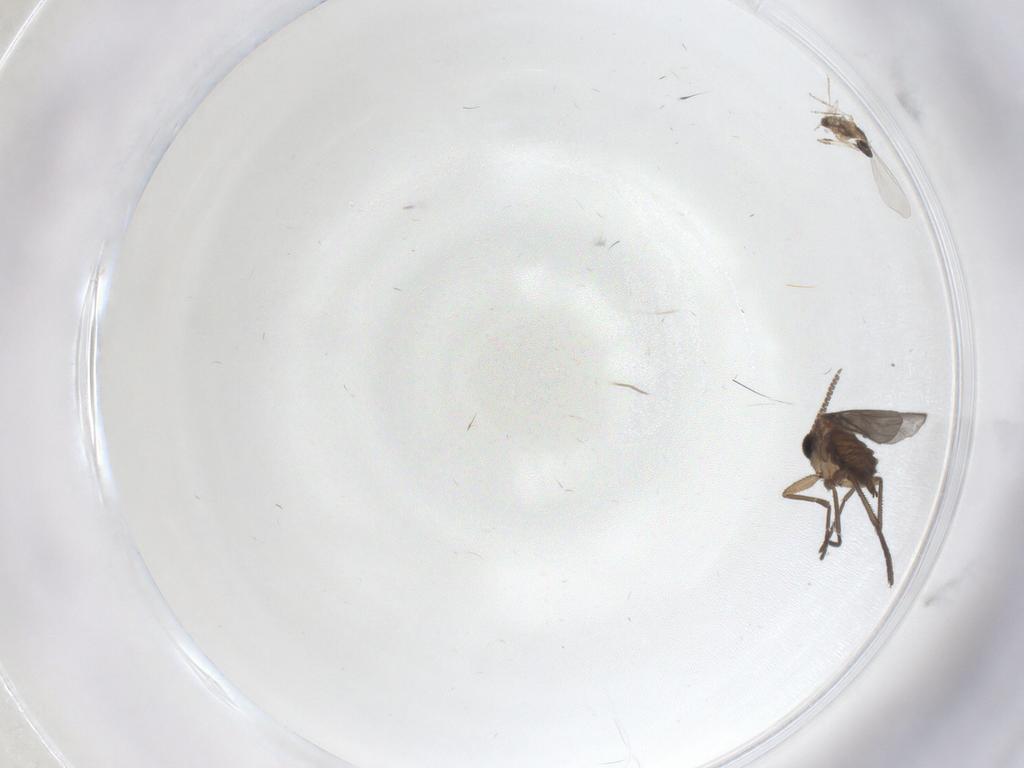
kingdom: Animalia
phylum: Arthropoda
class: Insecta
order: Diptera
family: Sciaridae
